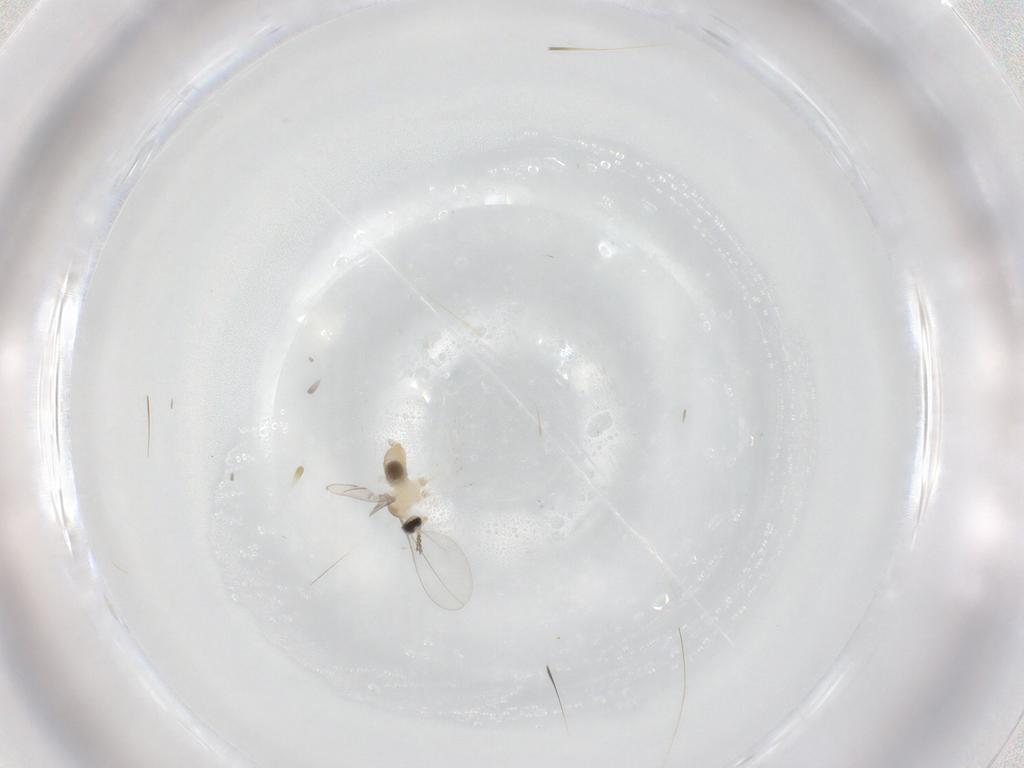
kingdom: Animalia
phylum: Arthropoda
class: Insecta
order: Diptera
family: Cecidomyiidae
